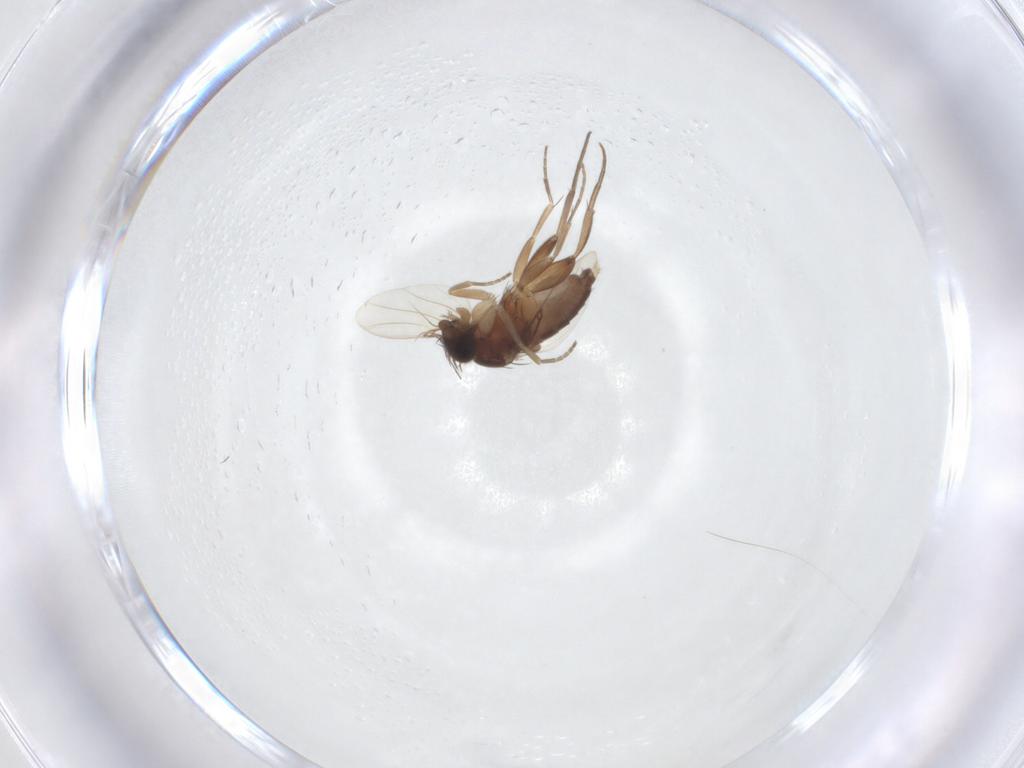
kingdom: Animalia
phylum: Arthropoda
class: Insecta
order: Diptera
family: Phoridae
